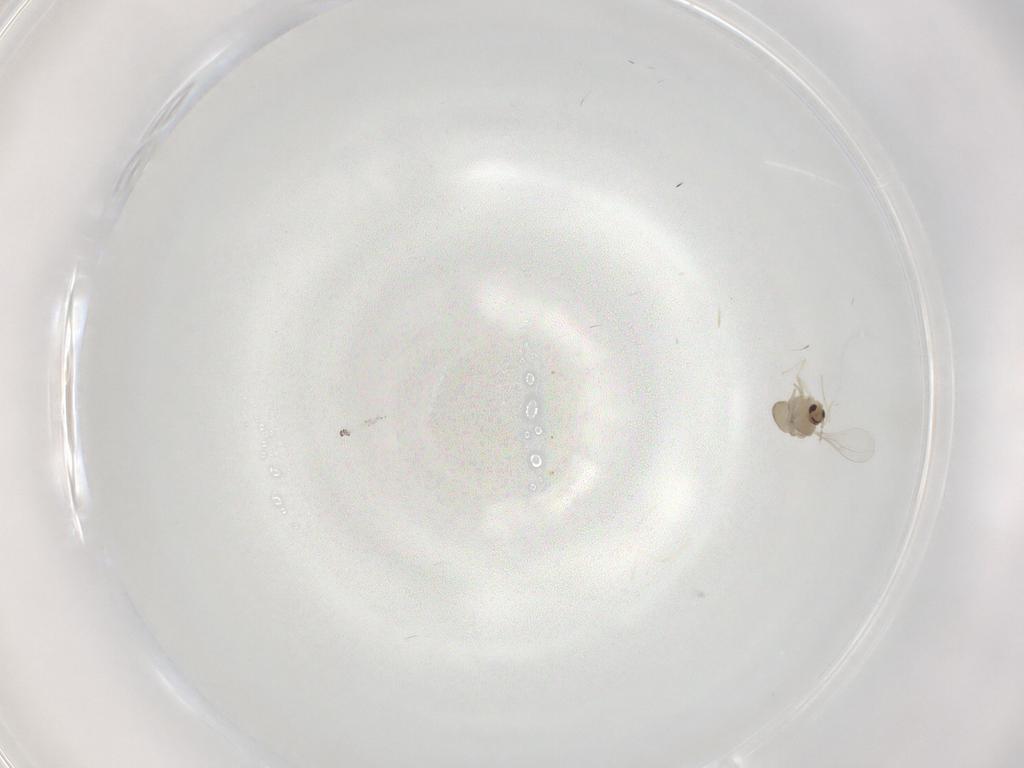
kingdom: Animalia
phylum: Arthropoda
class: Insecta
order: Diptera
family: Cecidomyiidae
